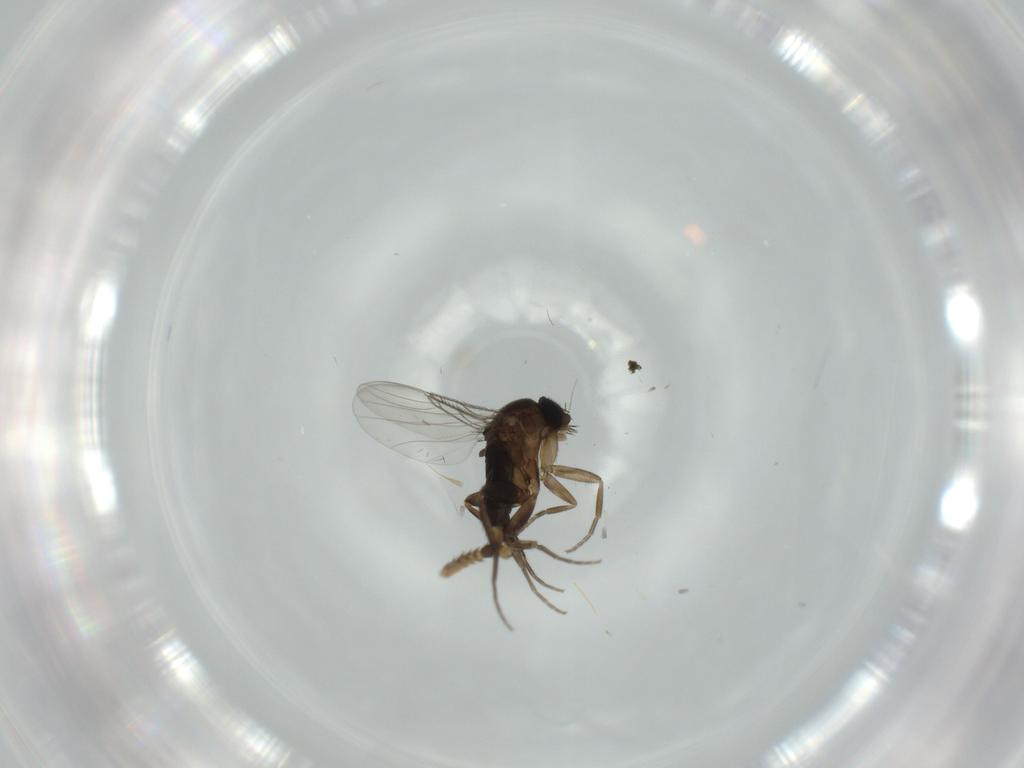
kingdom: Animalia
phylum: Arthropoda
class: Insecta
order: Diptera
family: Phoridae
